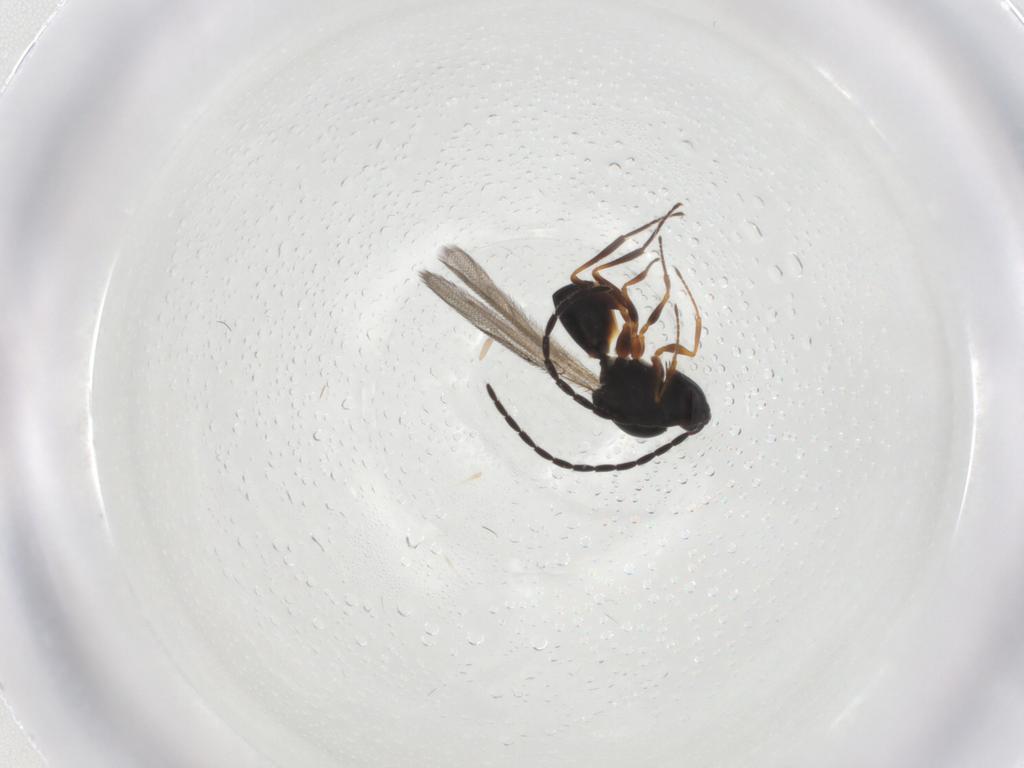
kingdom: Animalia
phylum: Arthropoda
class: Insecta
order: Hymenoptera
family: Figitidae
